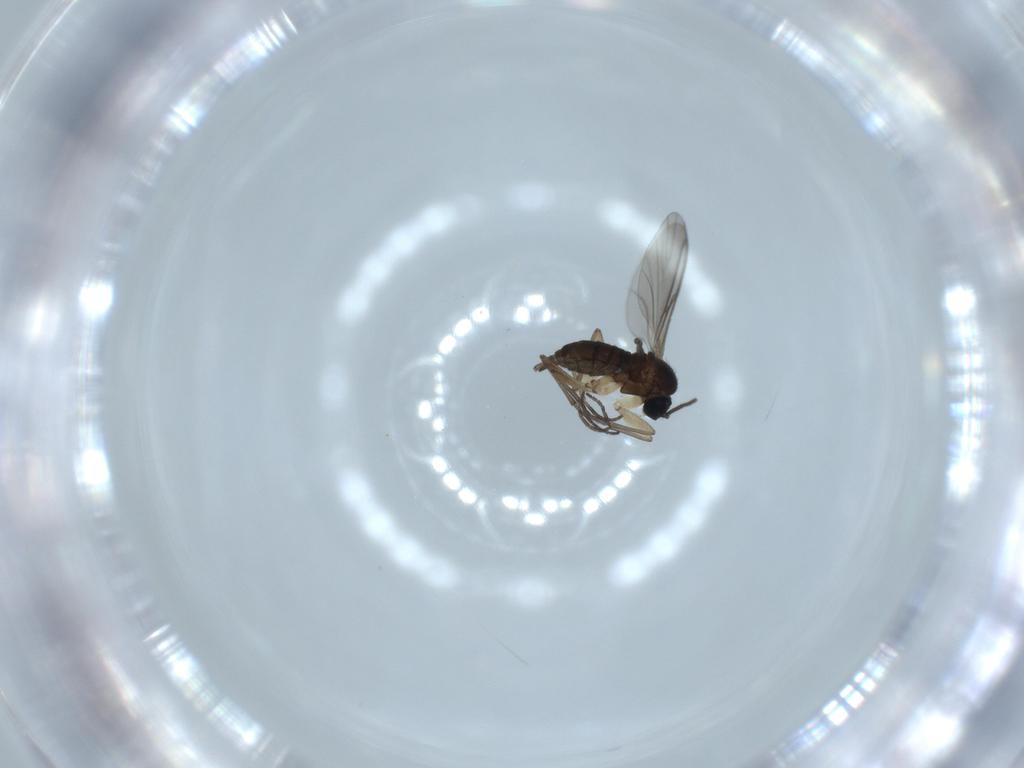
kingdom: Animalia
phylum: Arthropoda
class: Insecta
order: Diptera
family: Sciaridae
